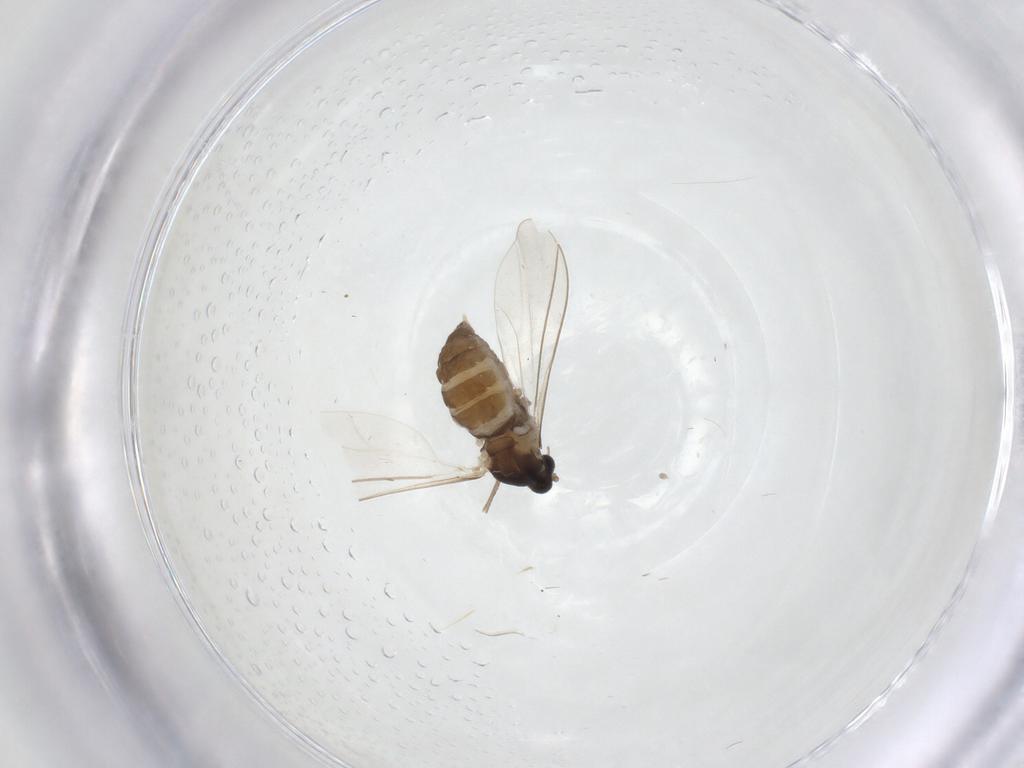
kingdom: Animalia
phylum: Arthropoda
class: Insecta
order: Diptera
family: Cecidomyiidae
